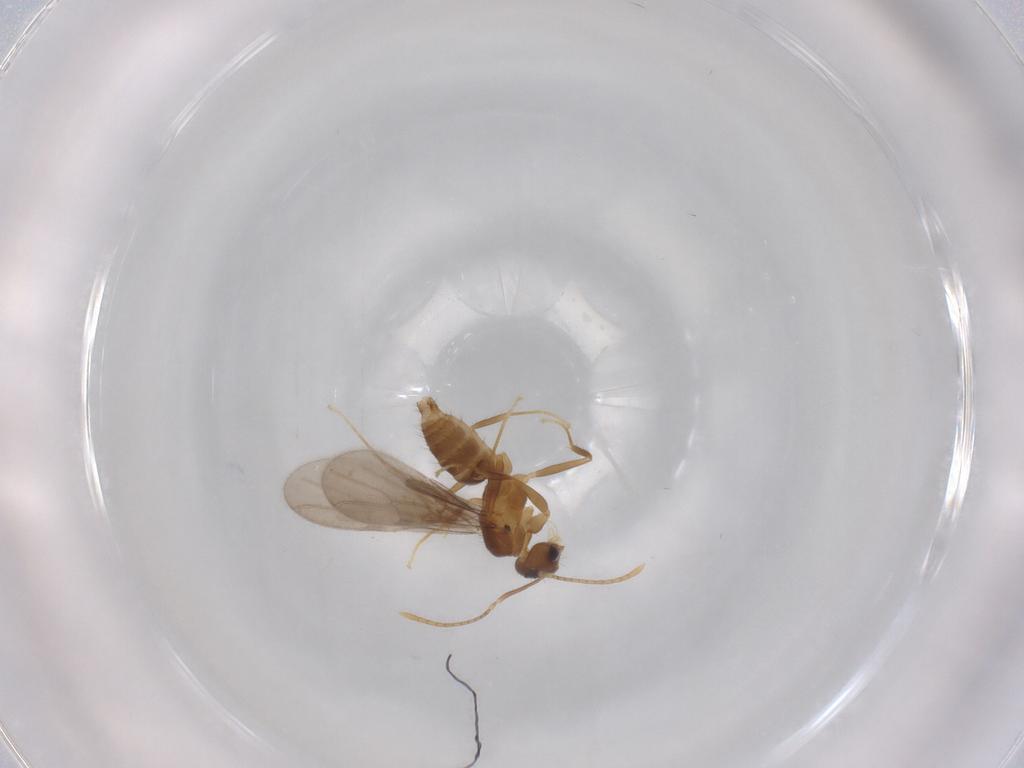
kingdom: Animalia
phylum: Arthropoda
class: Insecta
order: Hymenoptera
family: Formicidae
